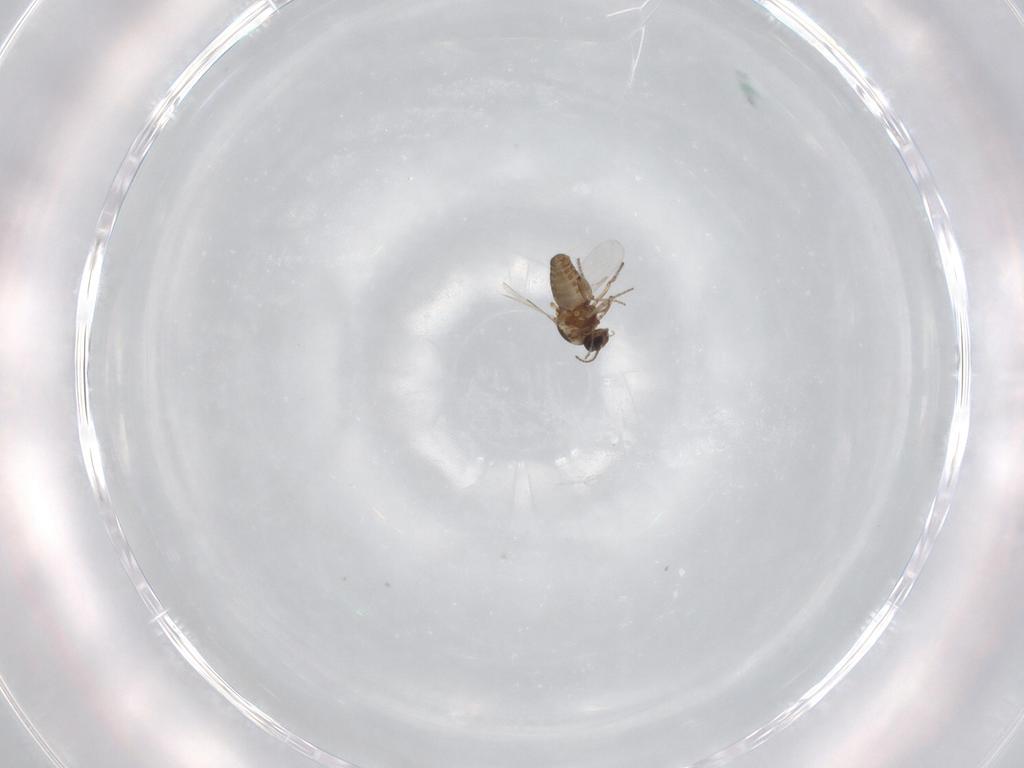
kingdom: Animalia
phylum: Arthropoda
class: Insecta
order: Diptera
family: Ceratopogonidae
